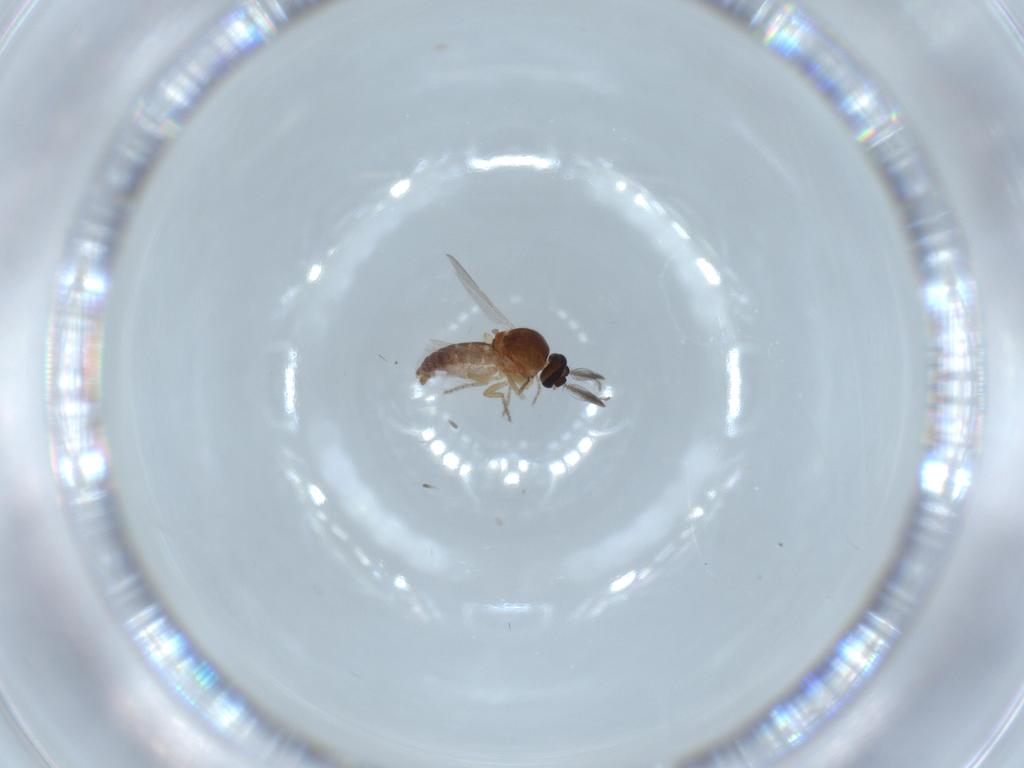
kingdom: Animalia
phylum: Arthropoda
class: Insecta
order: Diptera
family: Ceratopogonidae
